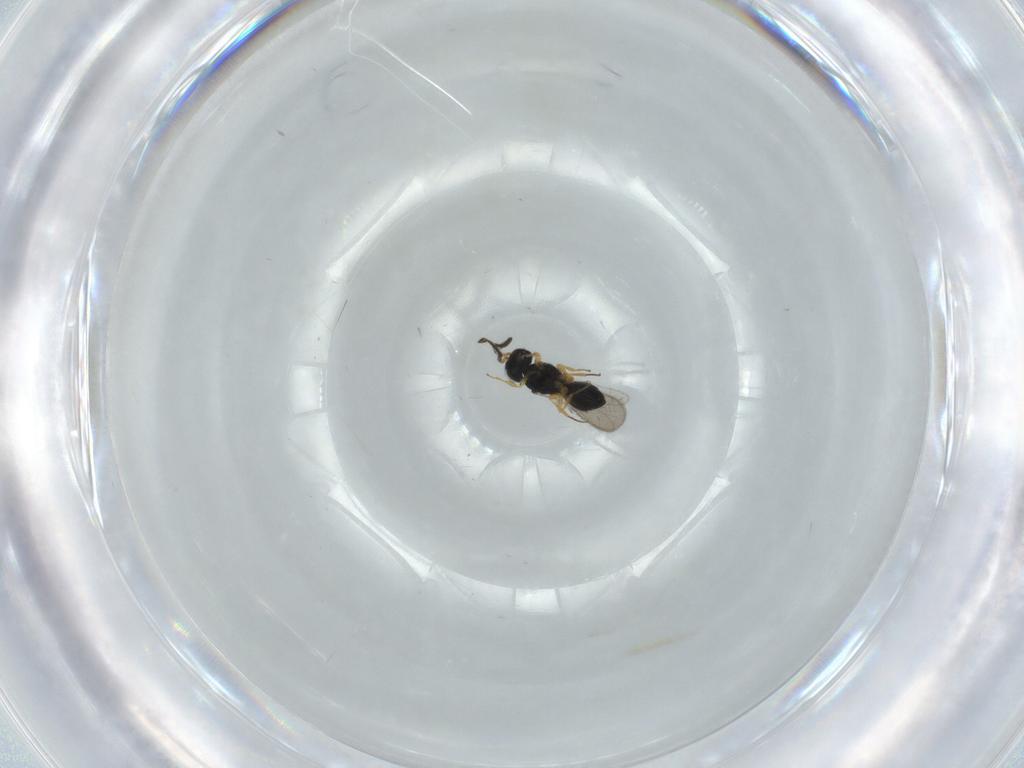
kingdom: Animalia
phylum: Arthropoda
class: Insecta
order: Hymenoptera
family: Scelionidae
